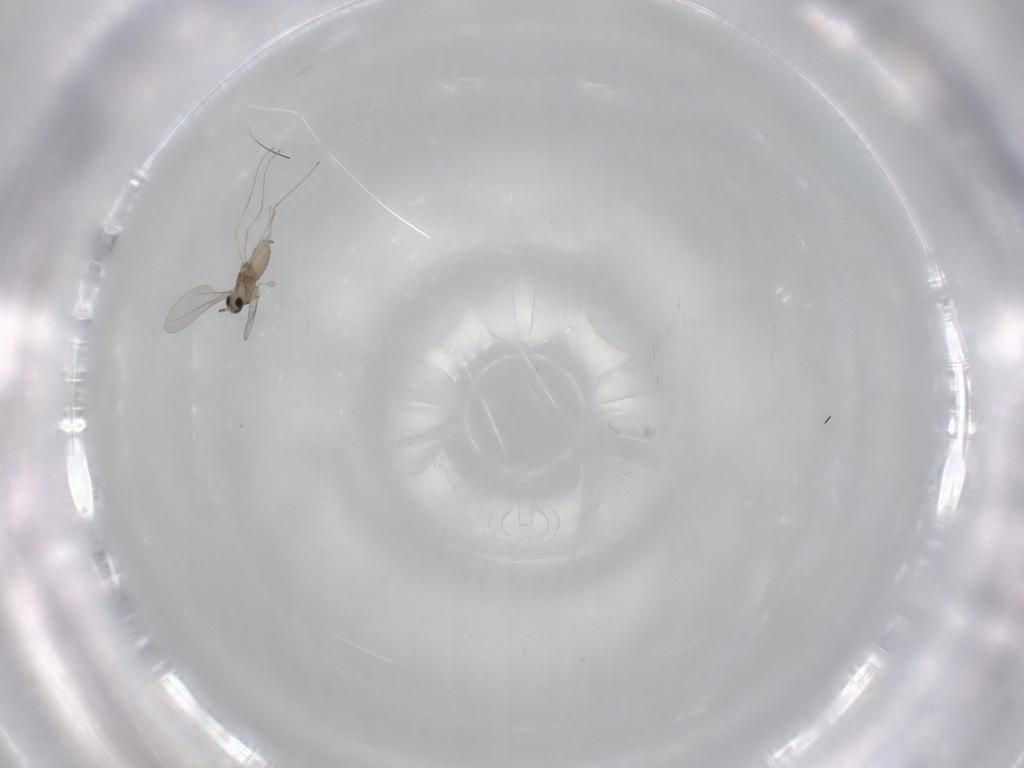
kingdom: Animalia
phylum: Arthropoda
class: Insecta
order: Diptera
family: Cecidomyiidae
